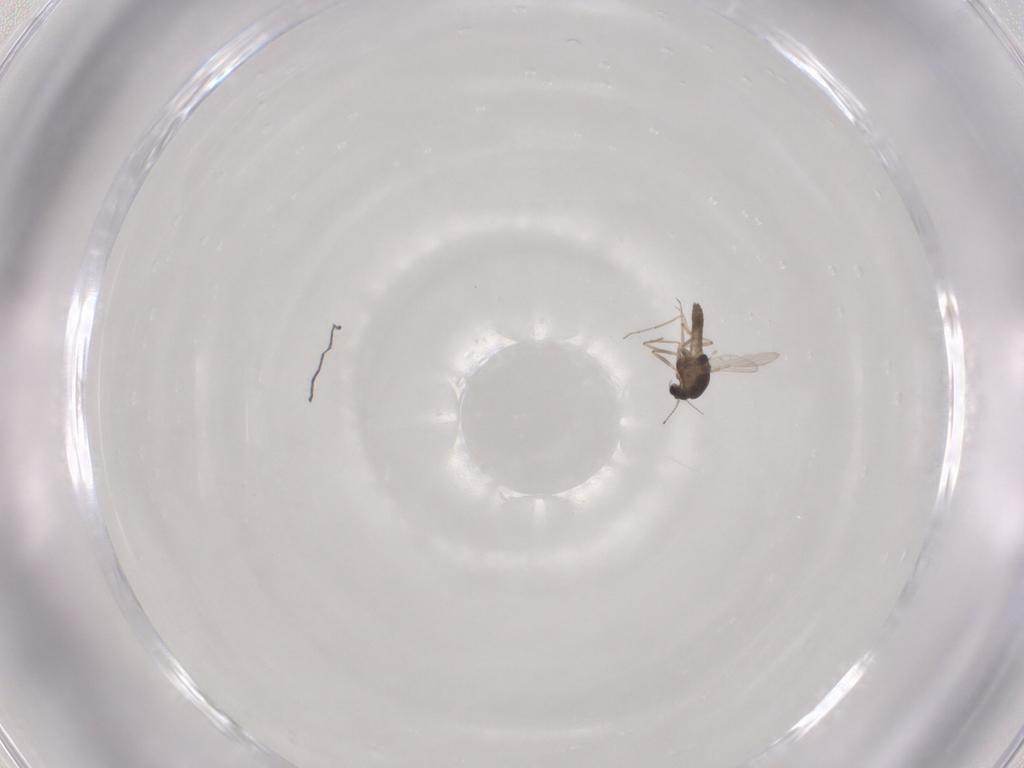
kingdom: Animalia
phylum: Arthropoda
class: Insecta
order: Diptera
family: Chironomidae
